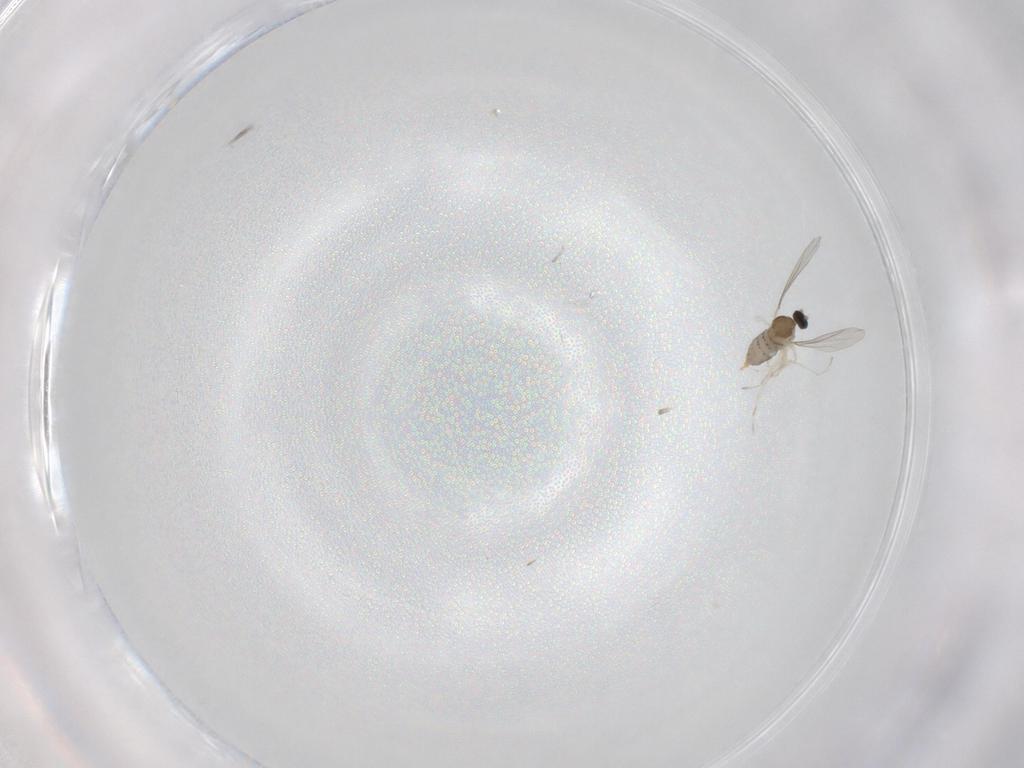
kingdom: Animalia
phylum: Arthropoda
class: Insecta
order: Diptera
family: Cecidomyiidae
